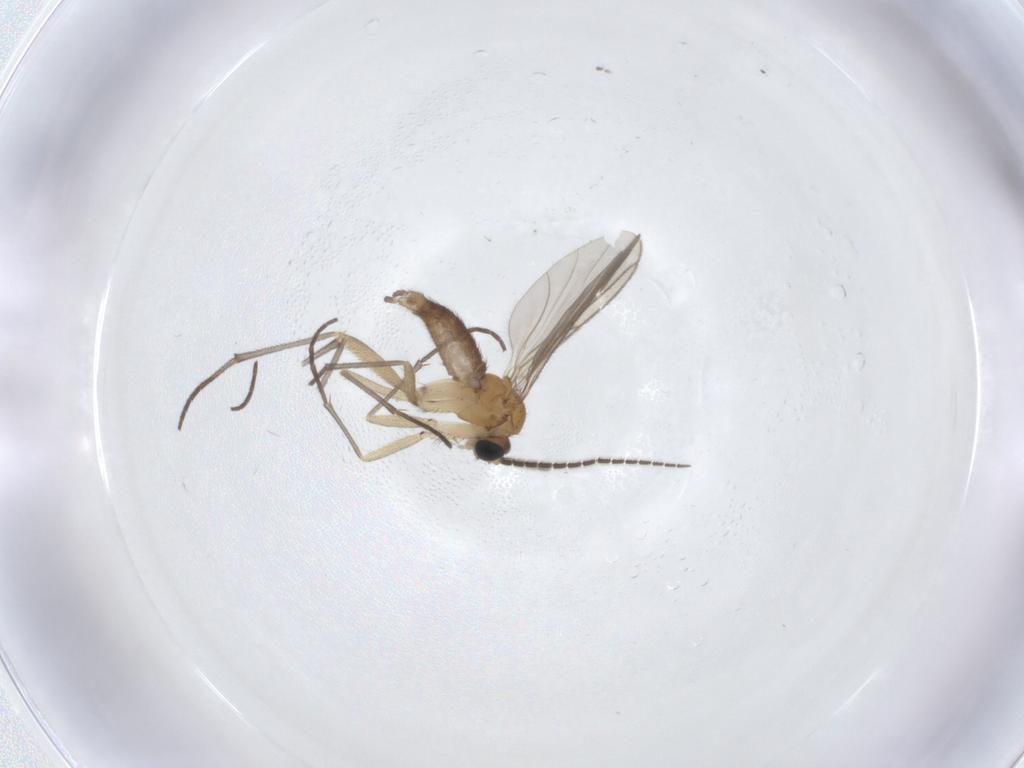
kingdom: Animalia
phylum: Arthropoda
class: Insecta
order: Diptera
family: Sciaridae
